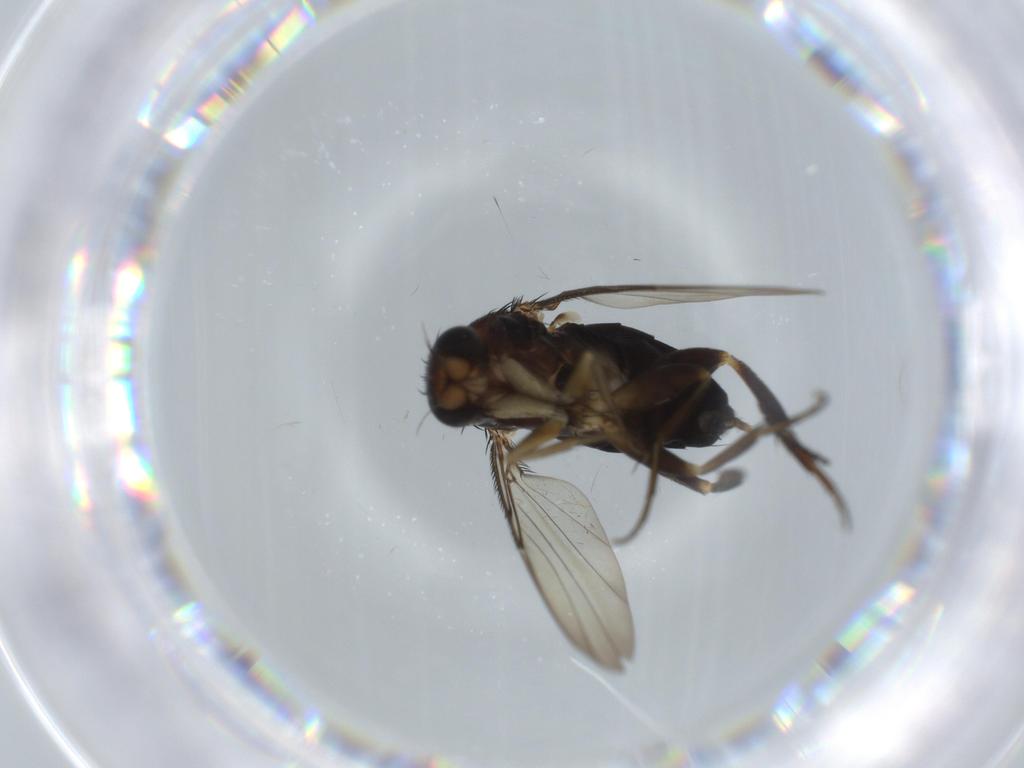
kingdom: Animalia
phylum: Arthropoda
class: Insecta
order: Diptera
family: Phoridae
